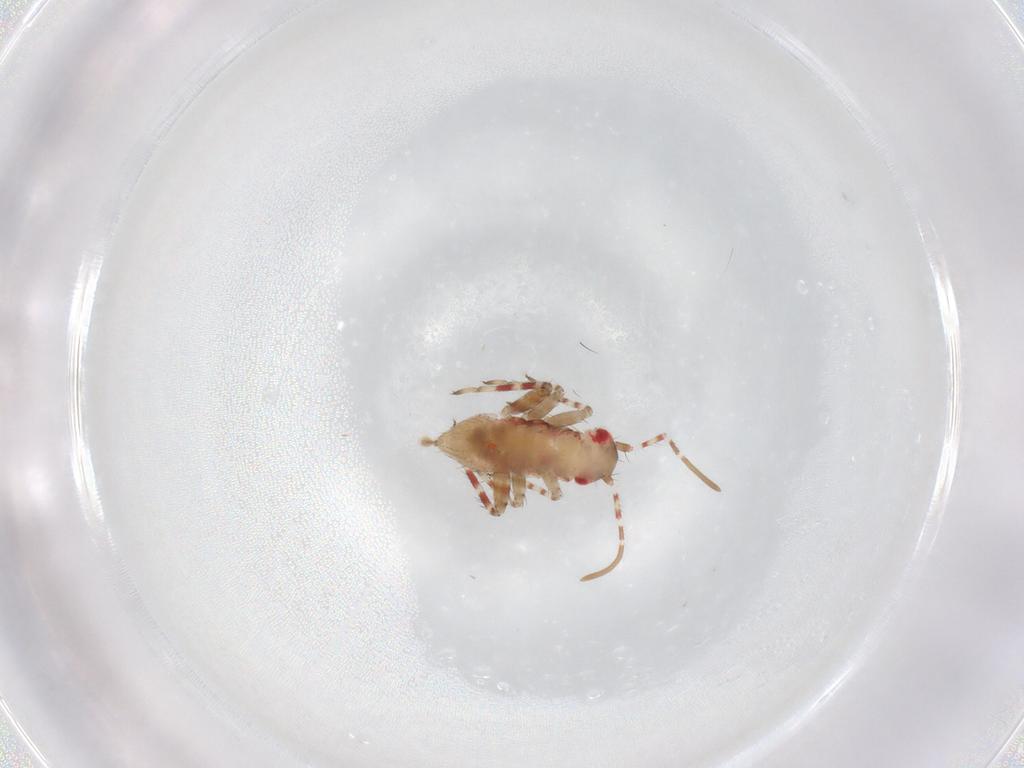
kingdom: Animalia
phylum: Arthropoda
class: Insecta
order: Hemiptera
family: Miridae
